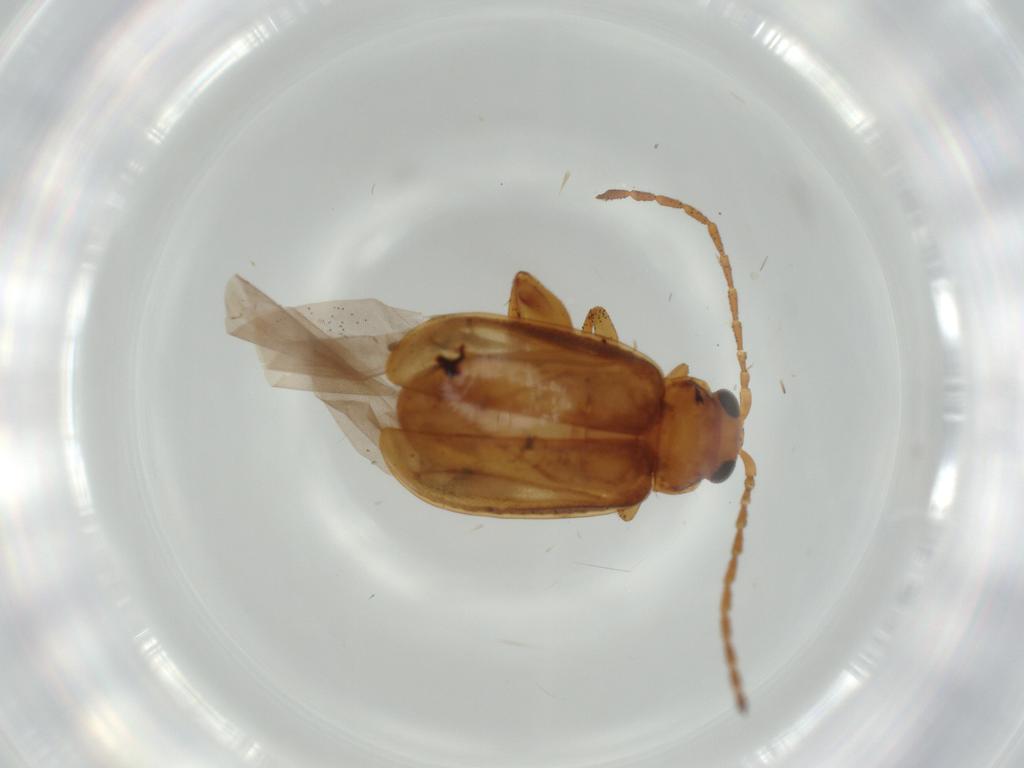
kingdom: Animalia
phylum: Arthropoda
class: Insecta
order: Coleoptera
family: Chrysomelidae
